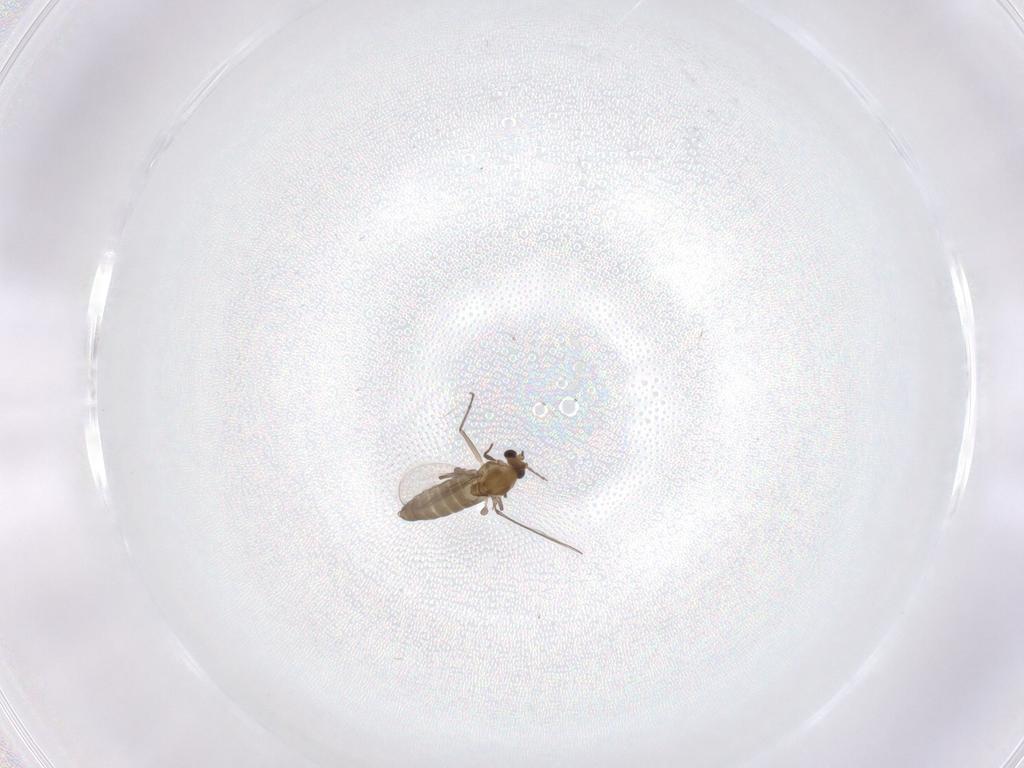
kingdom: Animalia
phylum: Arthropoda
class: Insecta
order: Diptera
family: Chironomidae
